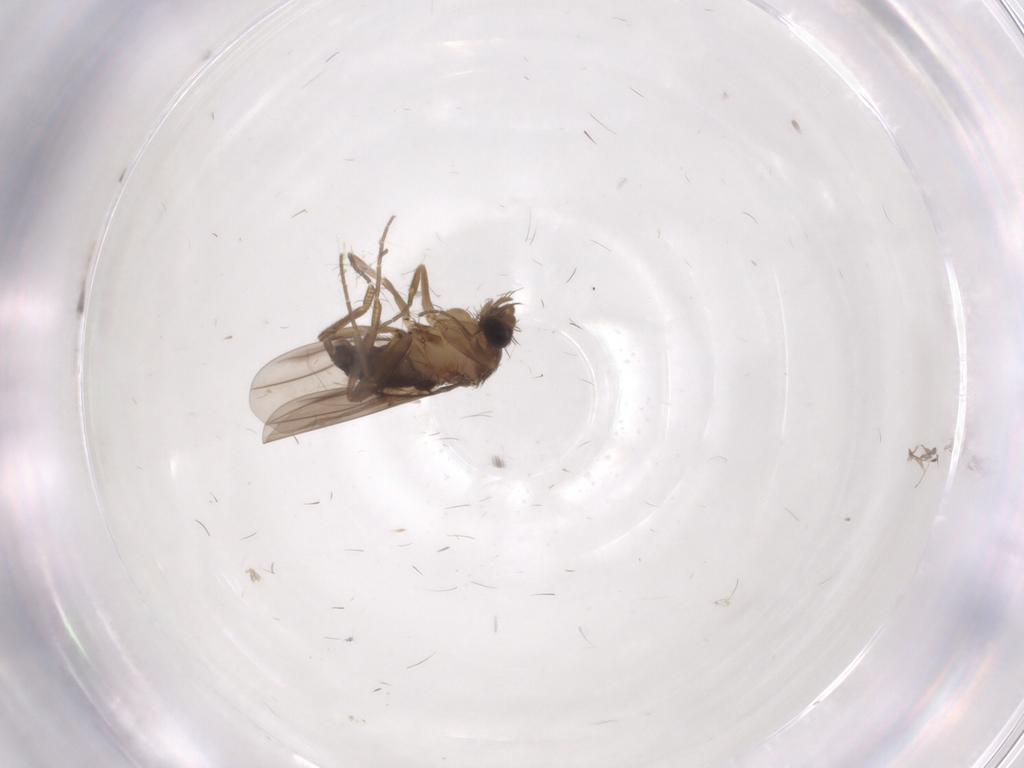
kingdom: Animalia
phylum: Arthropoda
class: Insecta
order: Diptera
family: Phoridae
